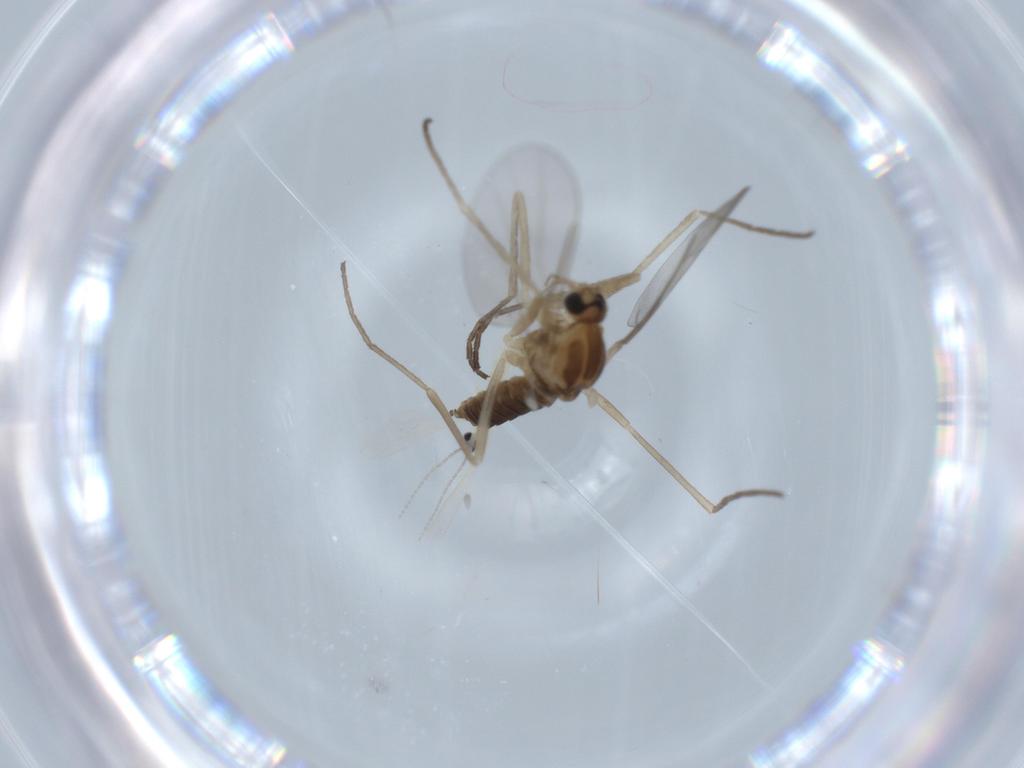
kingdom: Animalia
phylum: Arthropoda
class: Insecta
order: Diptera
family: Cecidomyiidae
